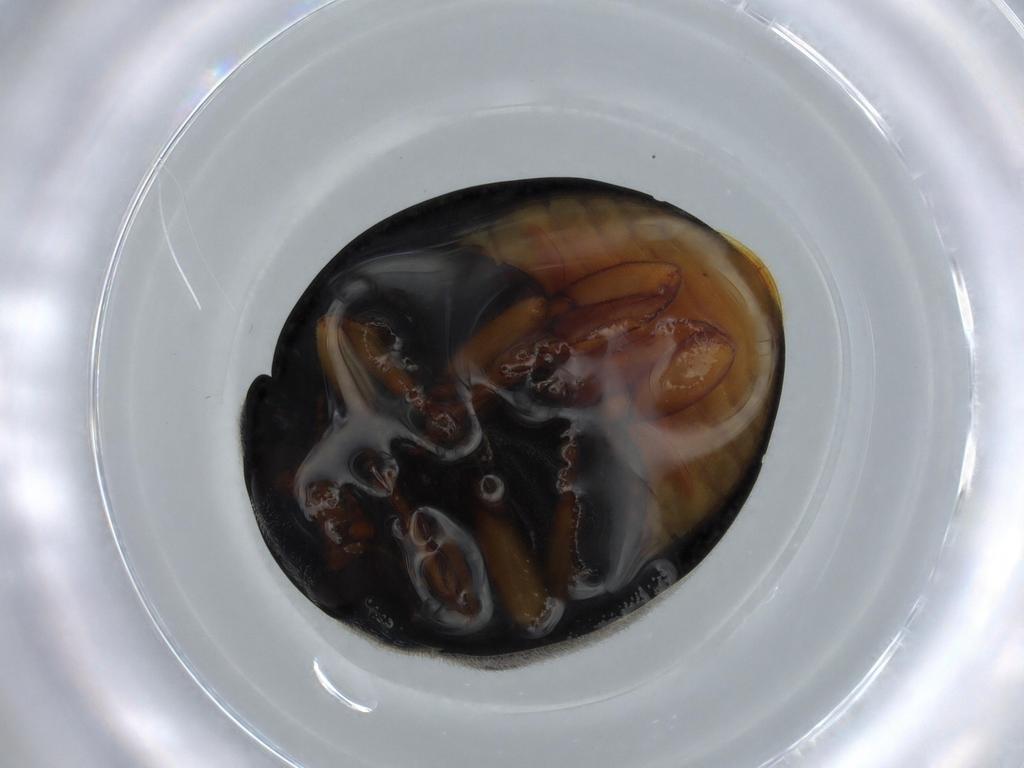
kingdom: Animalia
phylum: Arthropoda
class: Insecta
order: Coleoptera
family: Coccinellidae
